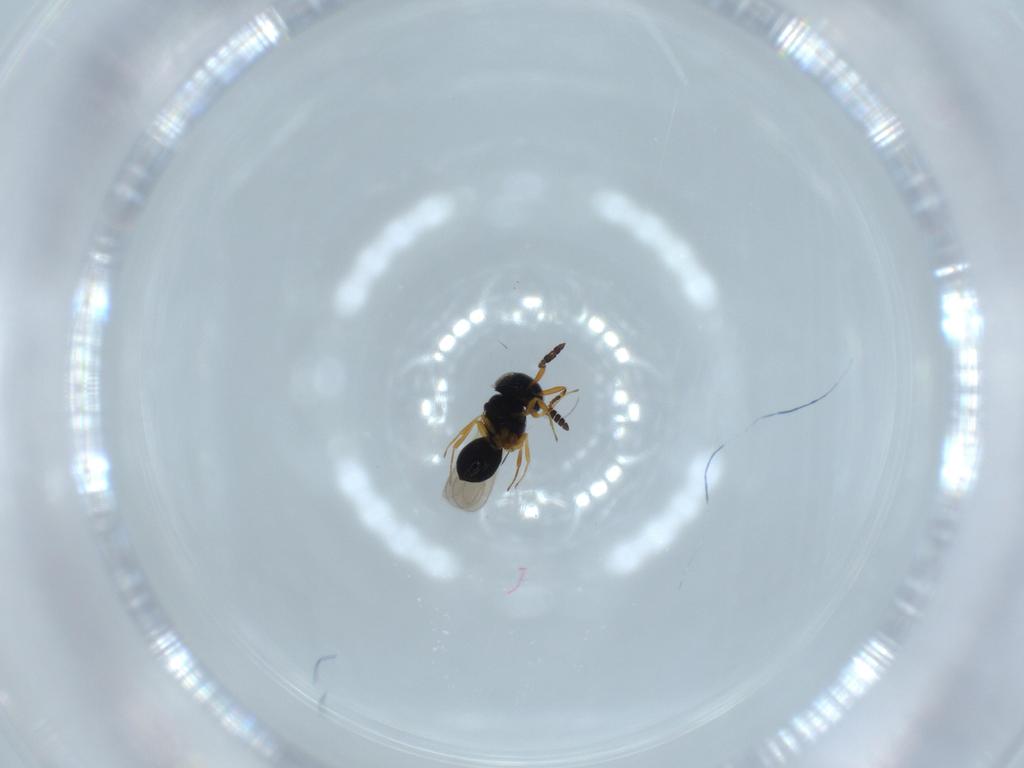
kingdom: Animalia
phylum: Arthropoda
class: Insecta
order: Hymenoptera
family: Scelionidae
